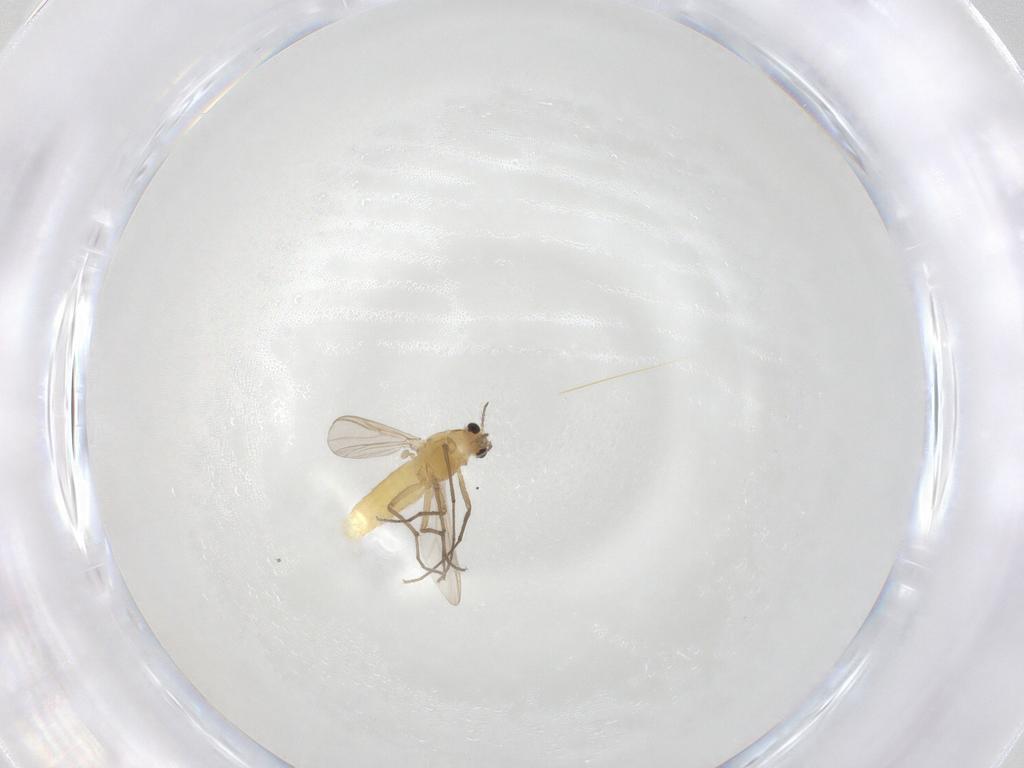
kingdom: Animalia
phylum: Arthropoda
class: Insecta
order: Diptera
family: Chironomidae
